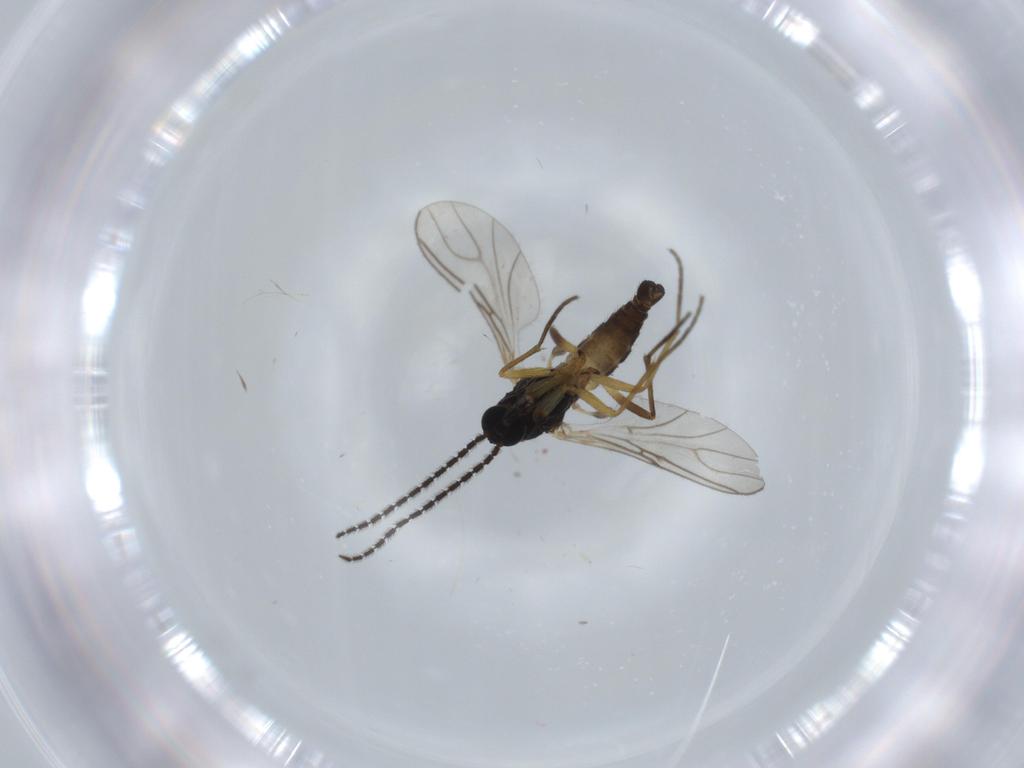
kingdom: Animalia
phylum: Arthropoda
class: Insecta
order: Diptera
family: Sciaridae
